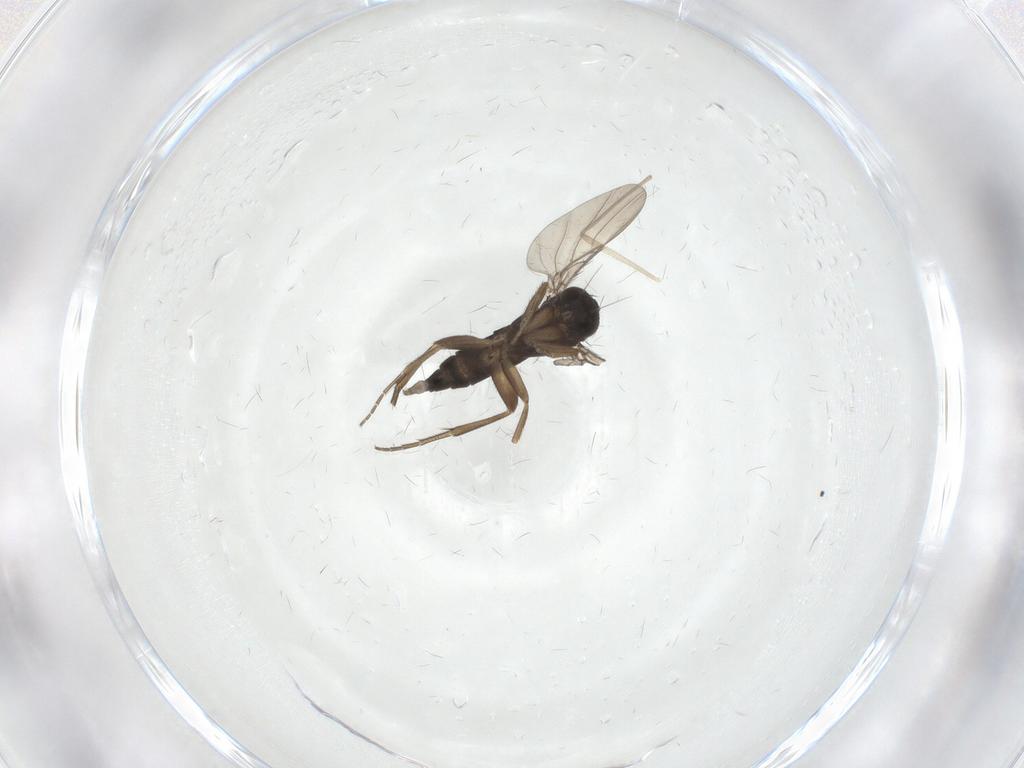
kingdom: Animalia
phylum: Arthropoda
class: Insecta
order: Diptera
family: Phoridae
